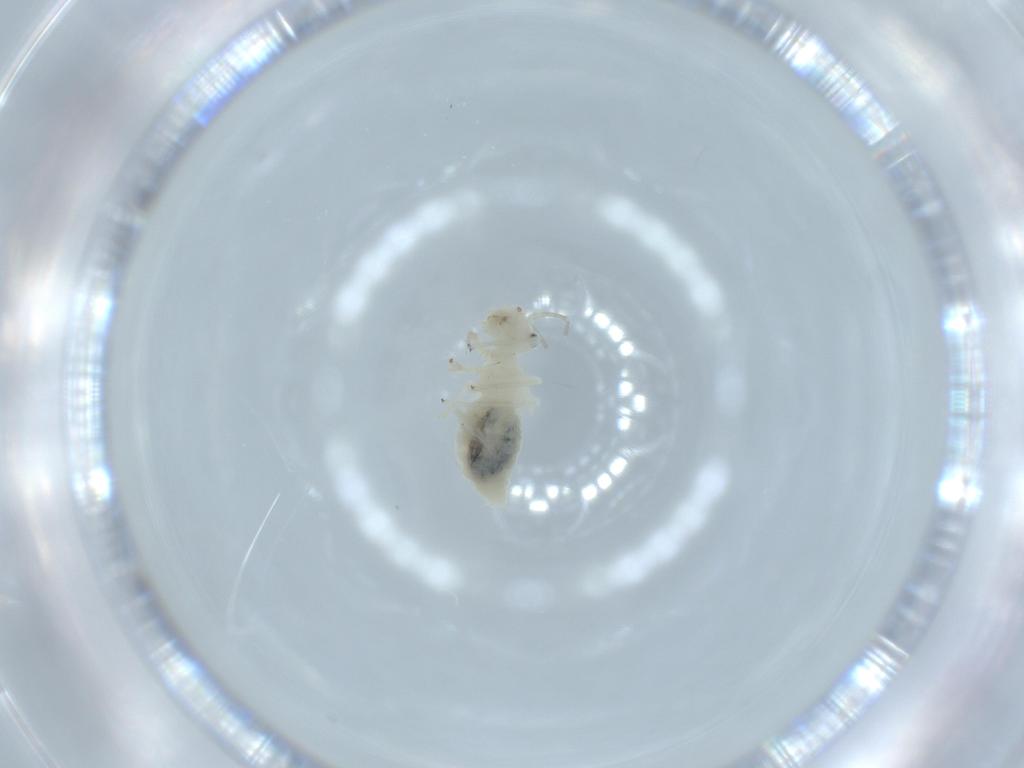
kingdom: Animalia
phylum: Arthropoda
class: Insecta
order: Psocodea
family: Caeciliusidae
